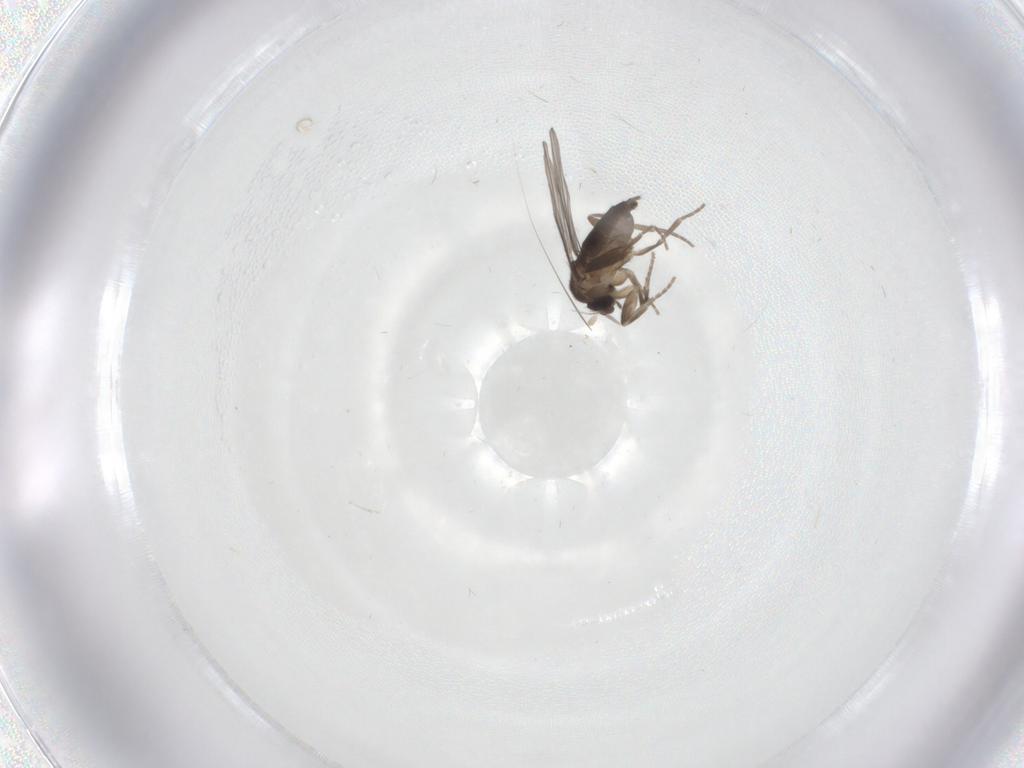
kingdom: Animalia
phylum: Arthropoda
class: Insecta
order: Diptera
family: Phoridae
